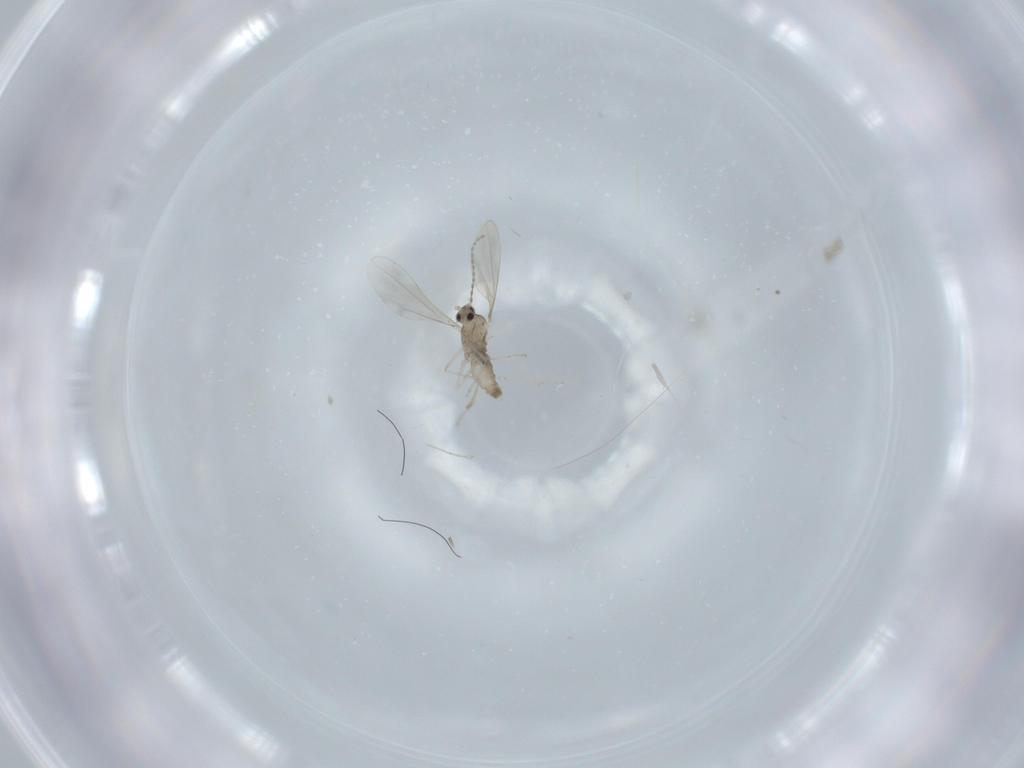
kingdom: Animalia
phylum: Arthropoda
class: Insecta
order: Diptera
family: Cecidomyiidae
